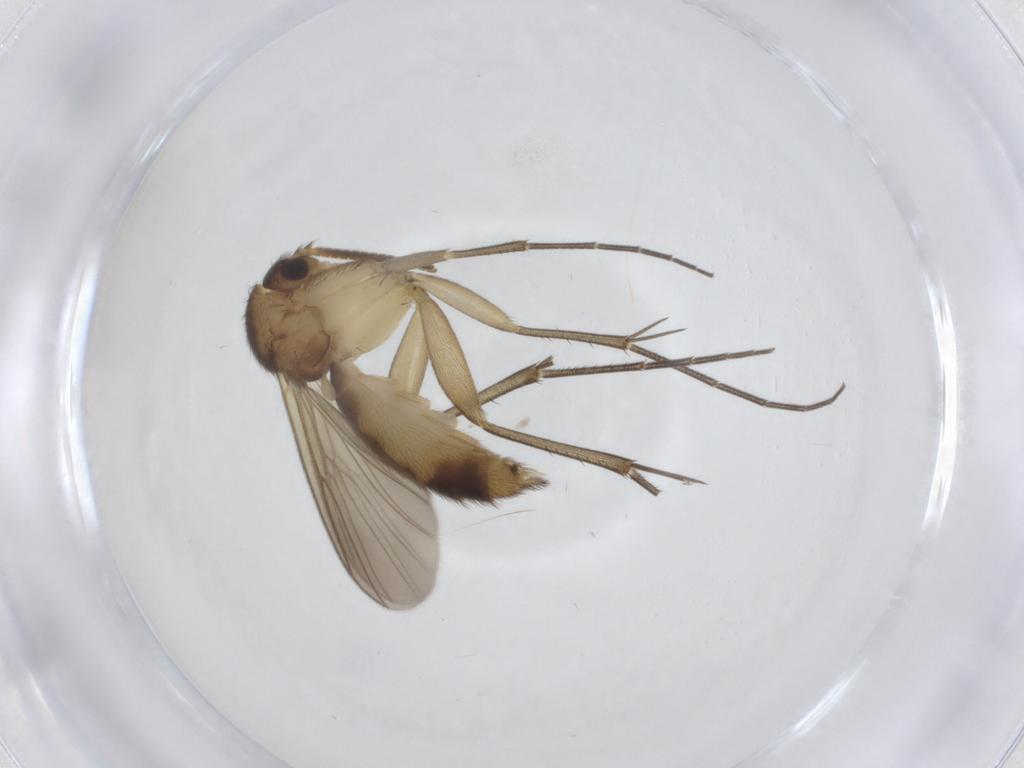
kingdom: Animalia
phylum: Arthropoda
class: Insecta
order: Diptera
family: Mycetophilidae
